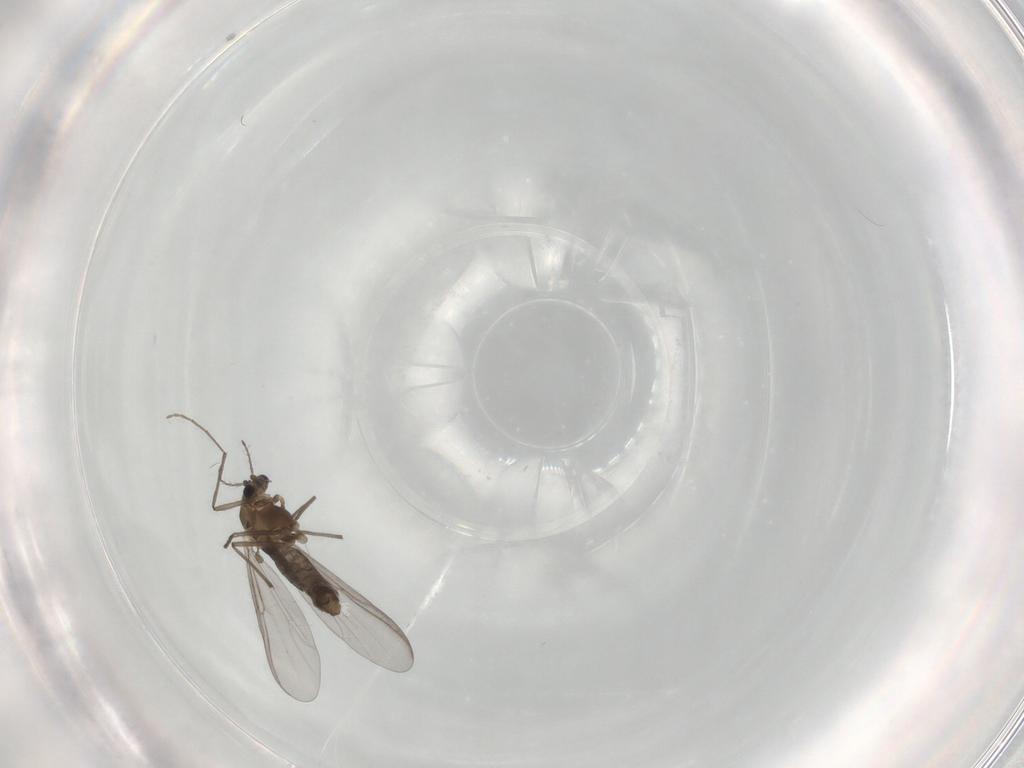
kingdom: Animalia
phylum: Arthropoda
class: Insecta
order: Diptera
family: Chironomidae
